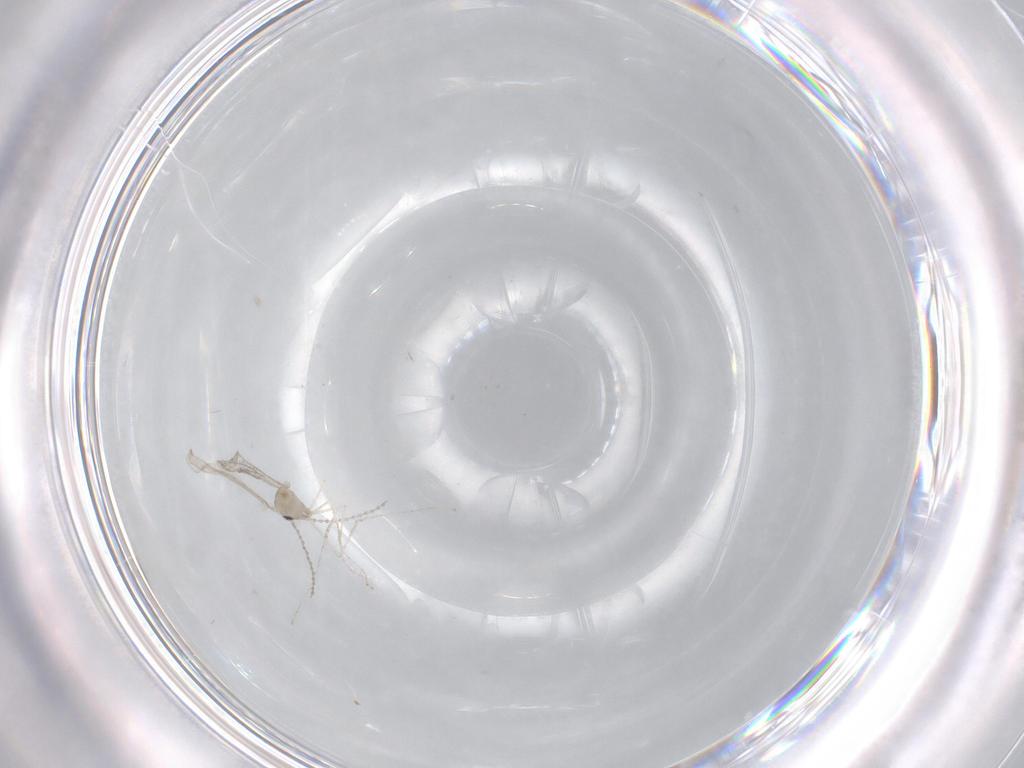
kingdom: Animalia
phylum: Arthropoda
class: Insecta
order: Diptera
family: Cecidomyiidae
